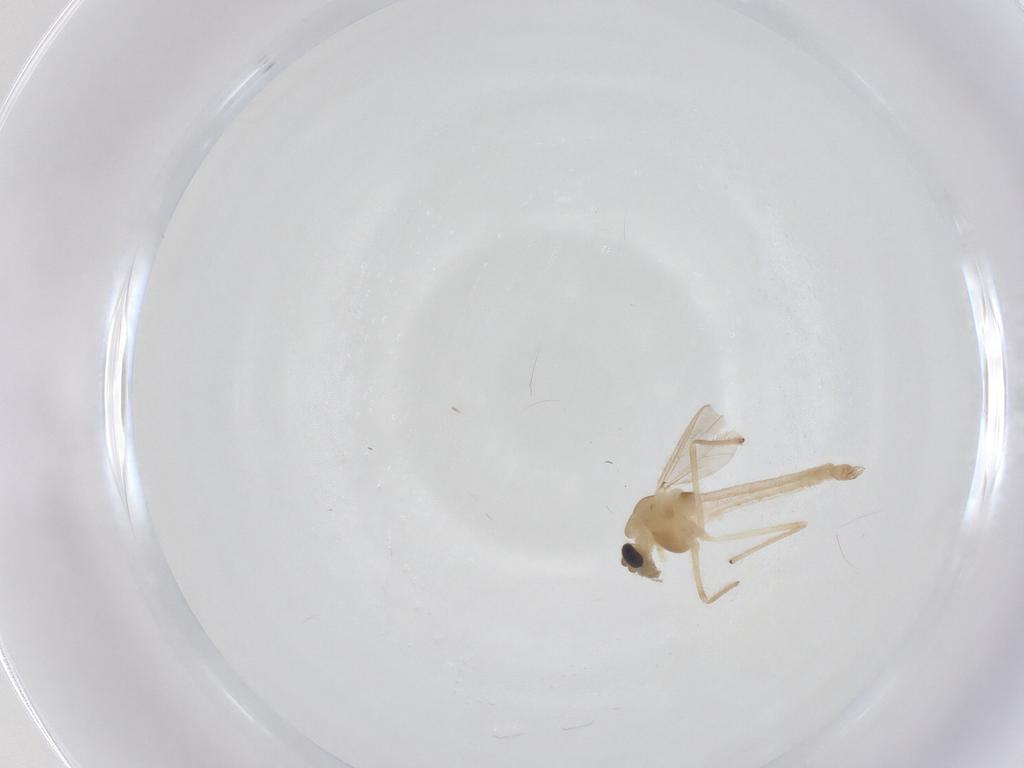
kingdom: Animalia
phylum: Arthropoda
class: Insecta
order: Diptera
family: Chironomidae
